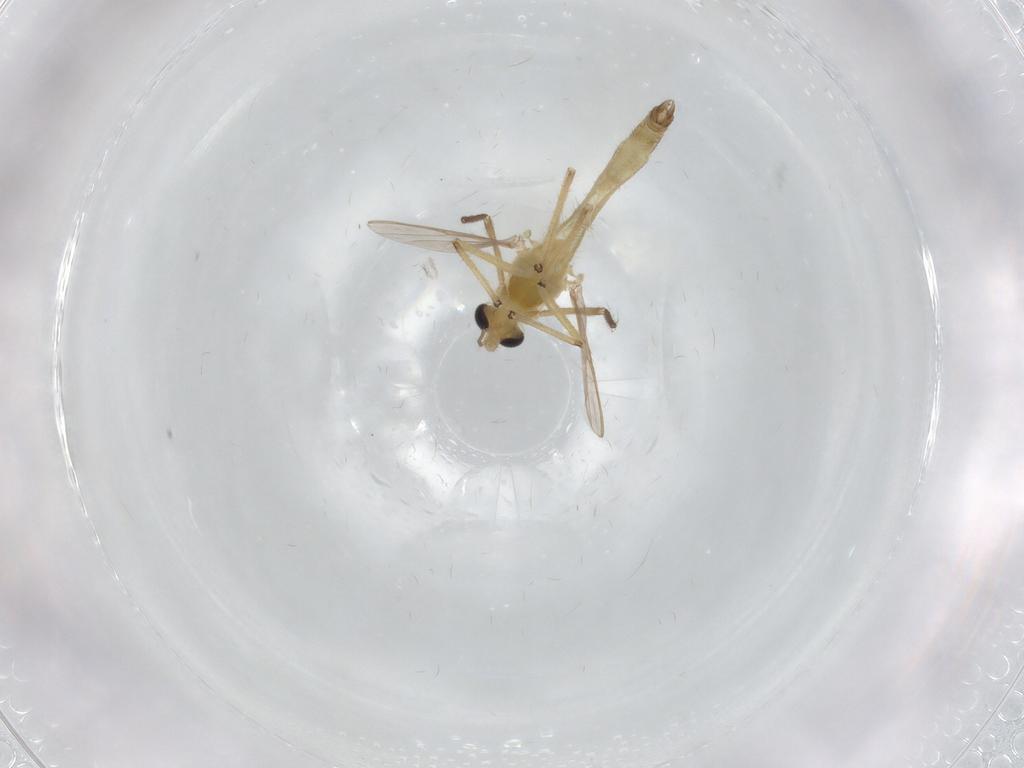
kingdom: Animalia
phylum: Arthropoda
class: Insecta
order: Diptera
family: Chironomidae
